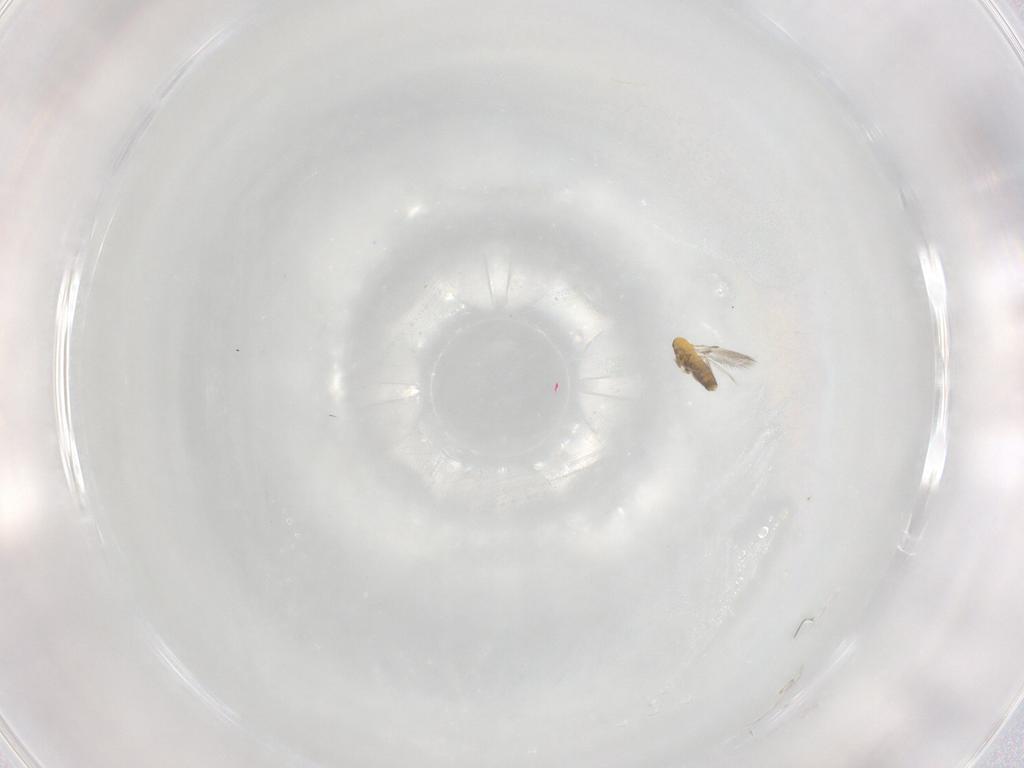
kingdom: Animalia
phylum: Arthropoda
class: Insecta
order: Hymenoptera
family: Trichogrammatidae
